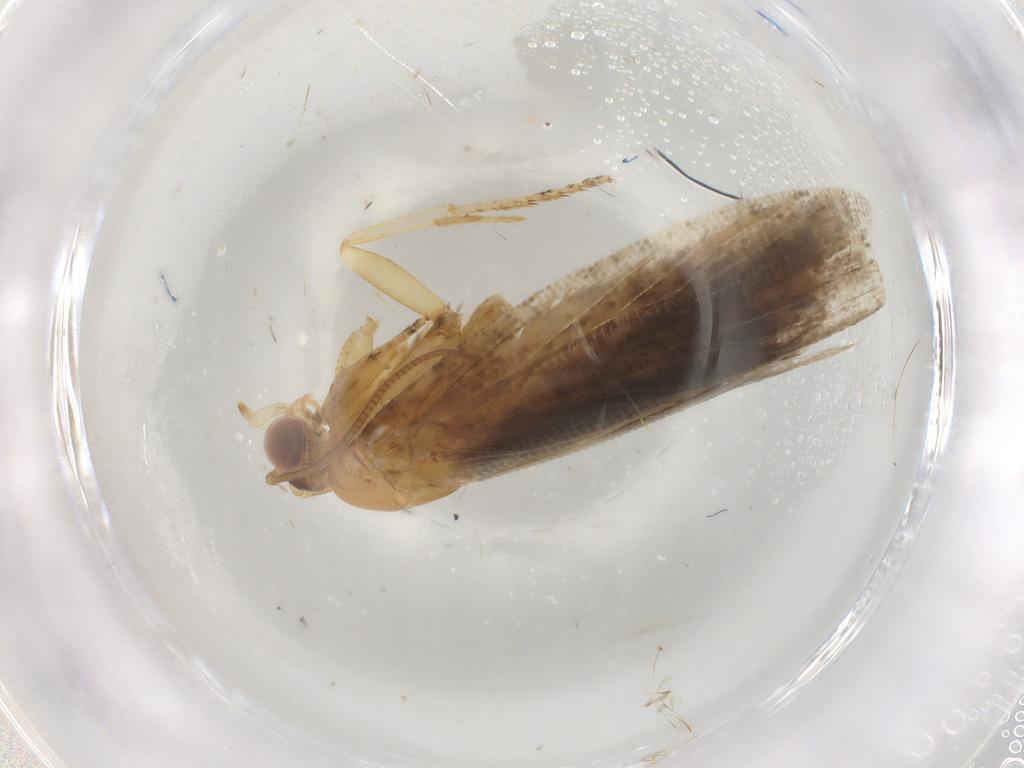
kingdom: Animalia
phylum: Arthropoda
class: Insecta
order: Lepidoptera
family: Tortricidae
